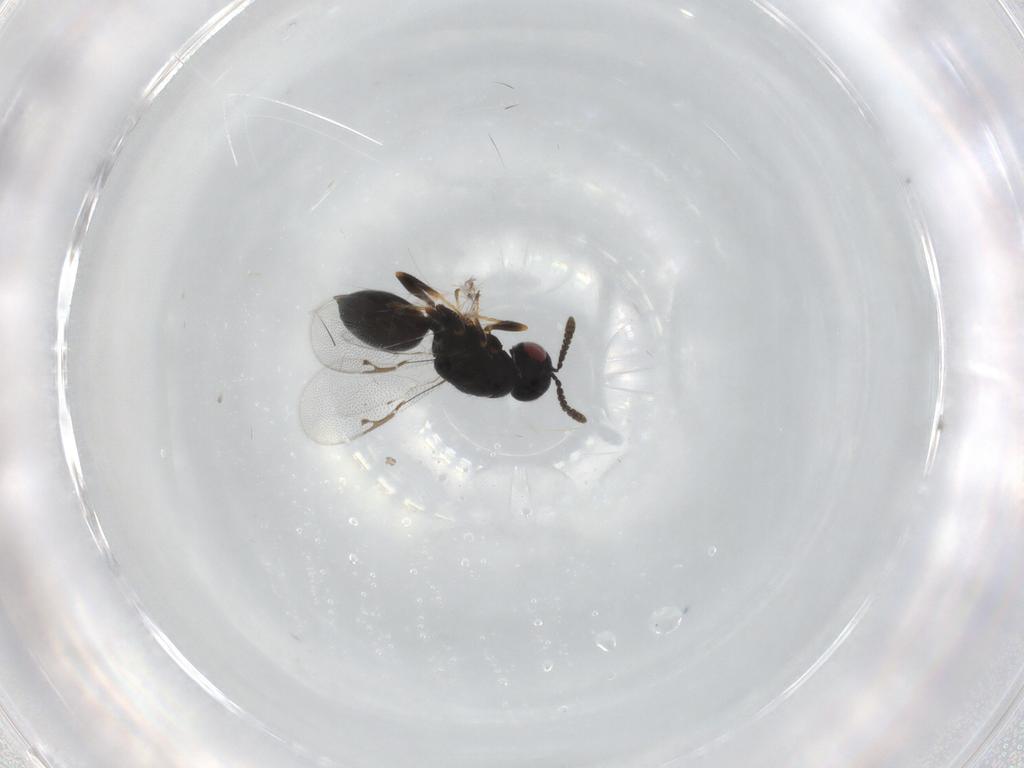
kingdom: Animalia
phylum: Arthropoda
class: Insecta
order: Hymenoptera
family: Eurytomidae
